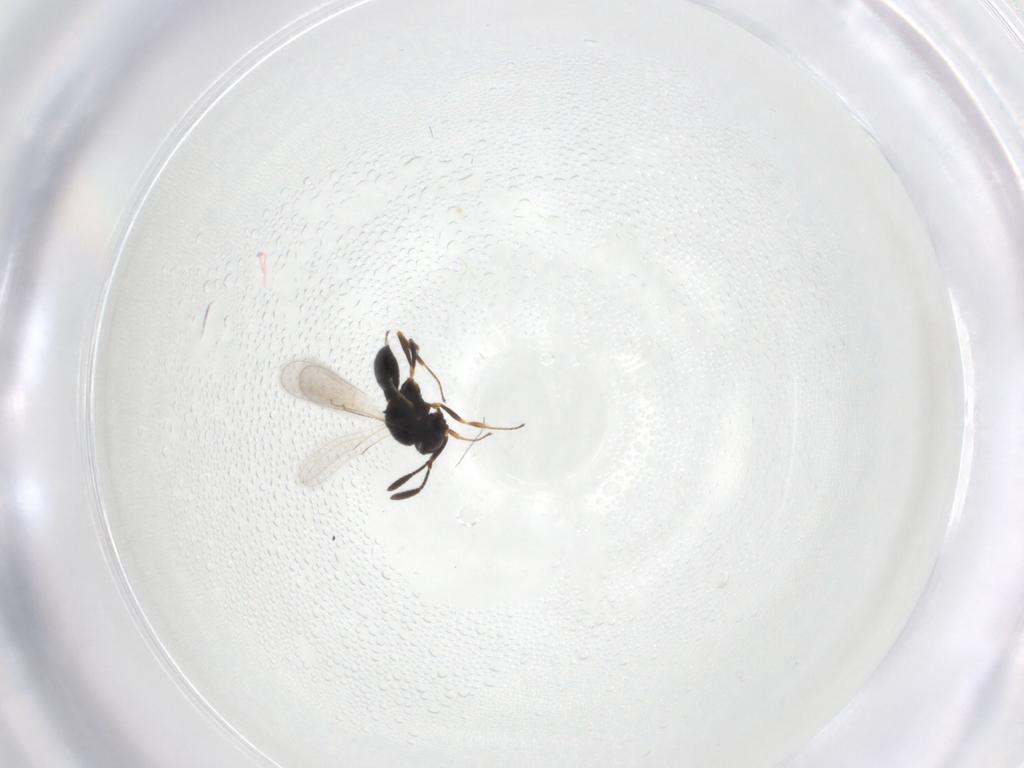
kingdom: Animalia
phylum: Arthropoda
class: Insecta
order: Hymenoptera
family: Scelionidae
